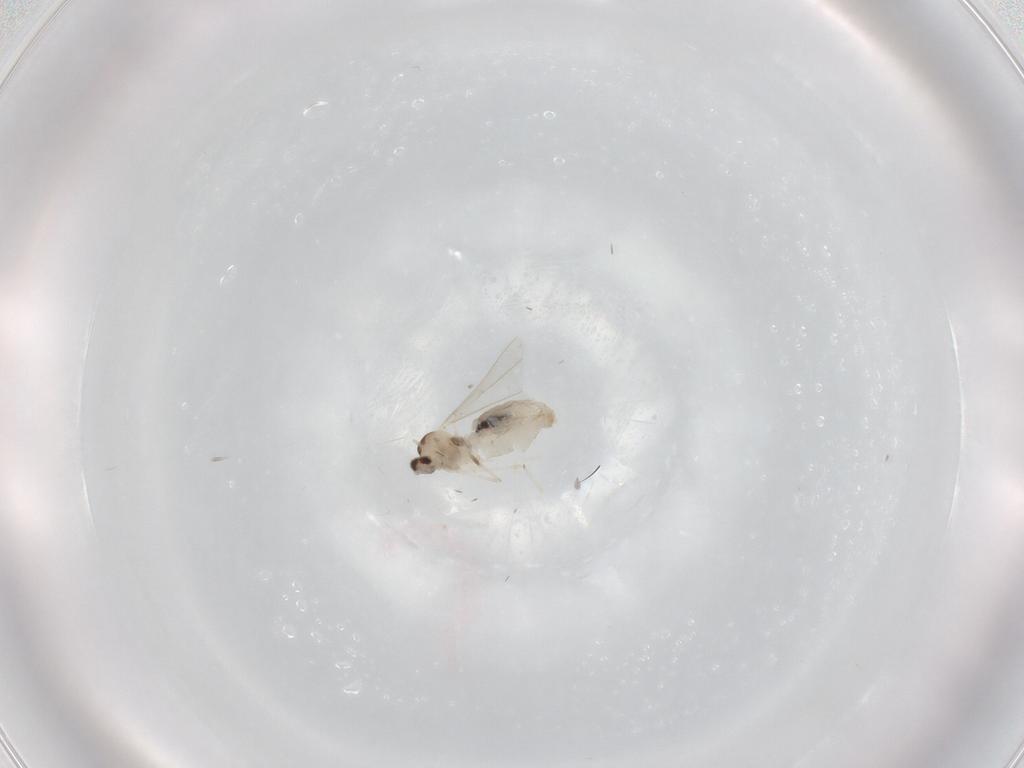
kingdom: Animalia
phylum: Arthropoda
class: Insecta
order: Diptera
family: Cecidomyiidae
